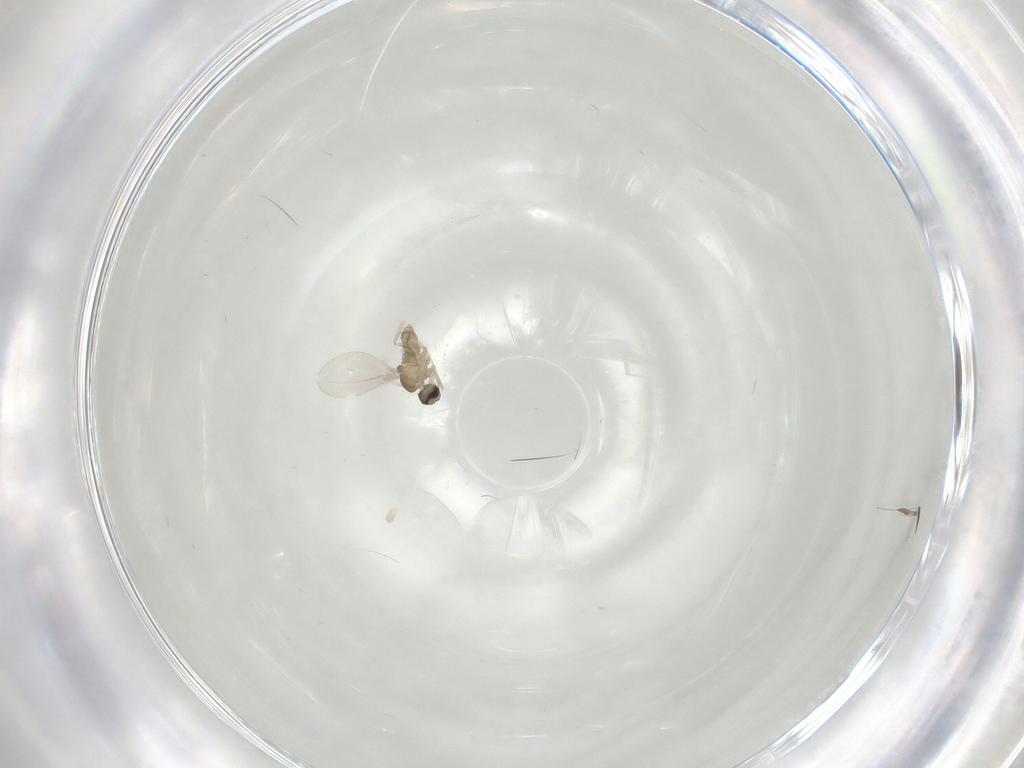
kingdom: Animalia
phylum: Arthropoda
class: Insecta
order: Diptera
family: Cecidomyiidae
